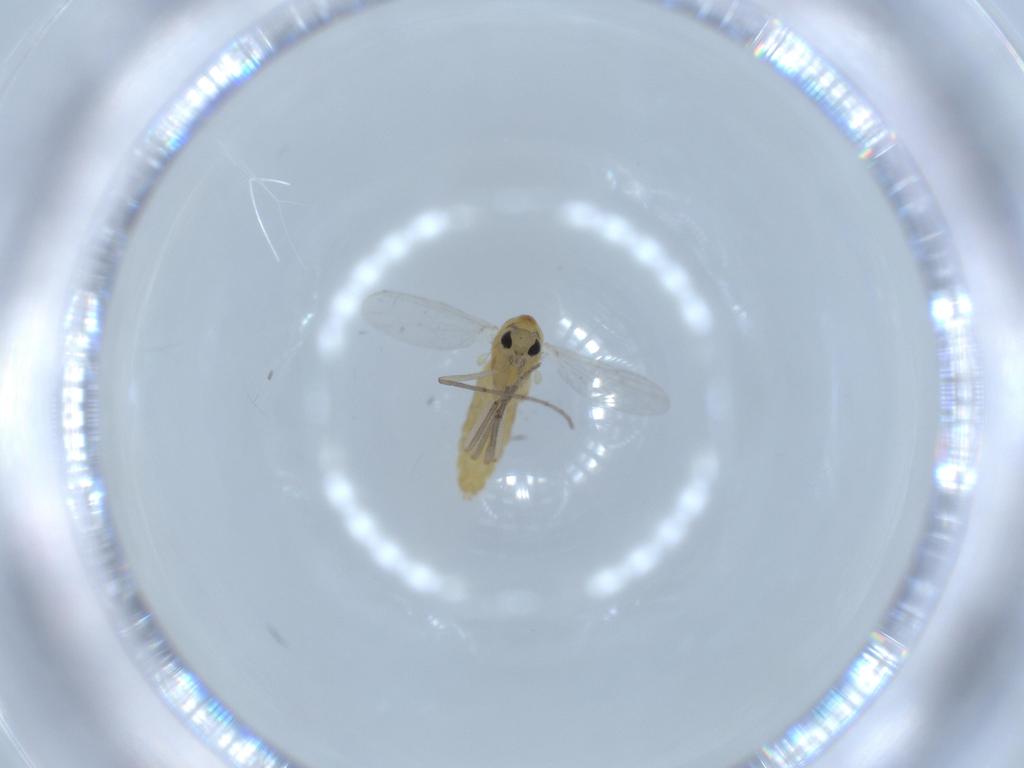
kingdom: Animalia
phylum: Arthropoda
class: Insecta
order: Diptera
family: Chironomidae
